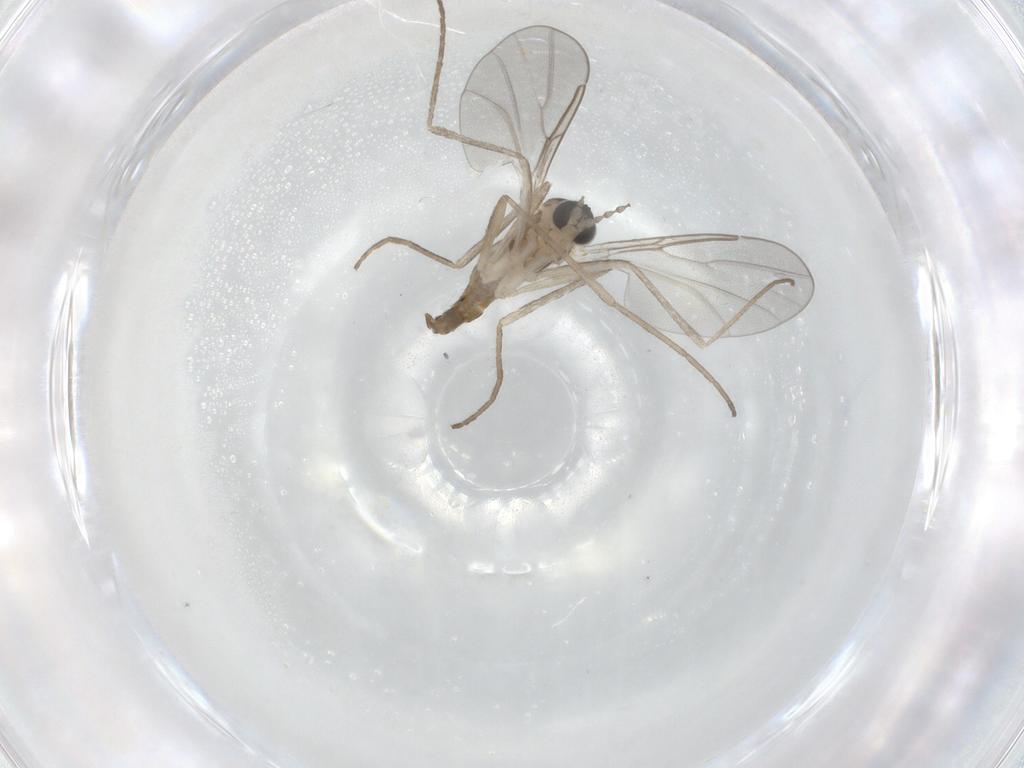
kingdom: Animalia
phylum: Arthropoda
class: Insecta
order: Diptera
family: Cecidomyiidae
